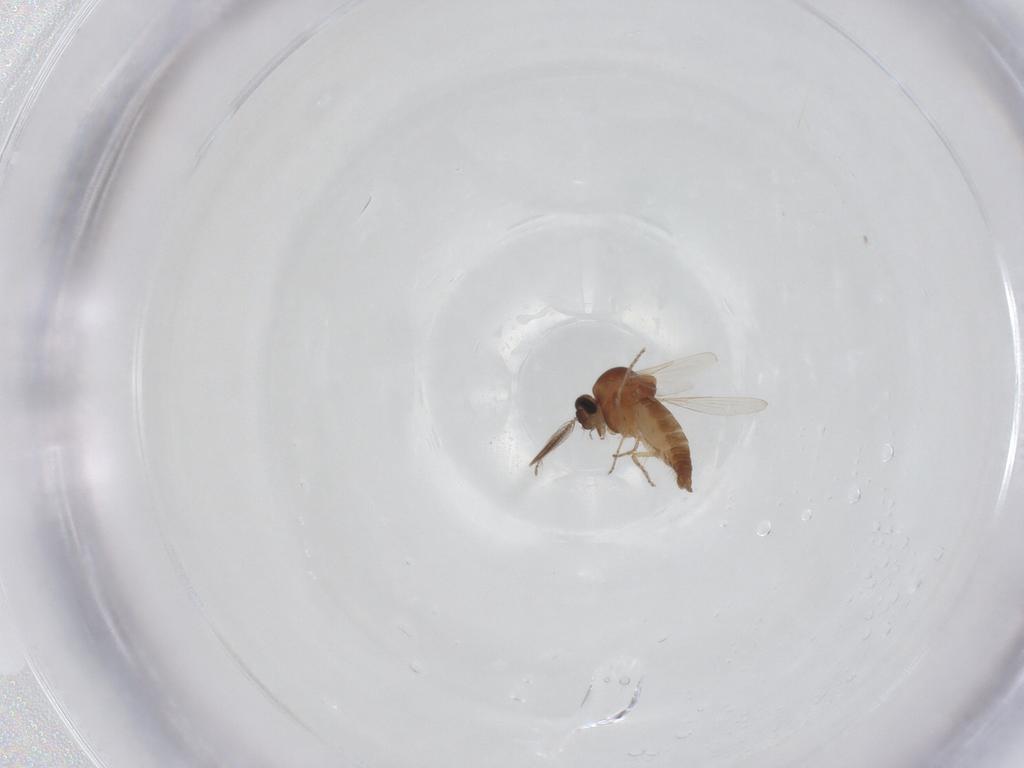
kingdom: Animalia
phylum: Arthropoda
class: Insecta
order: Diptera
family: Ceratopogonidae
